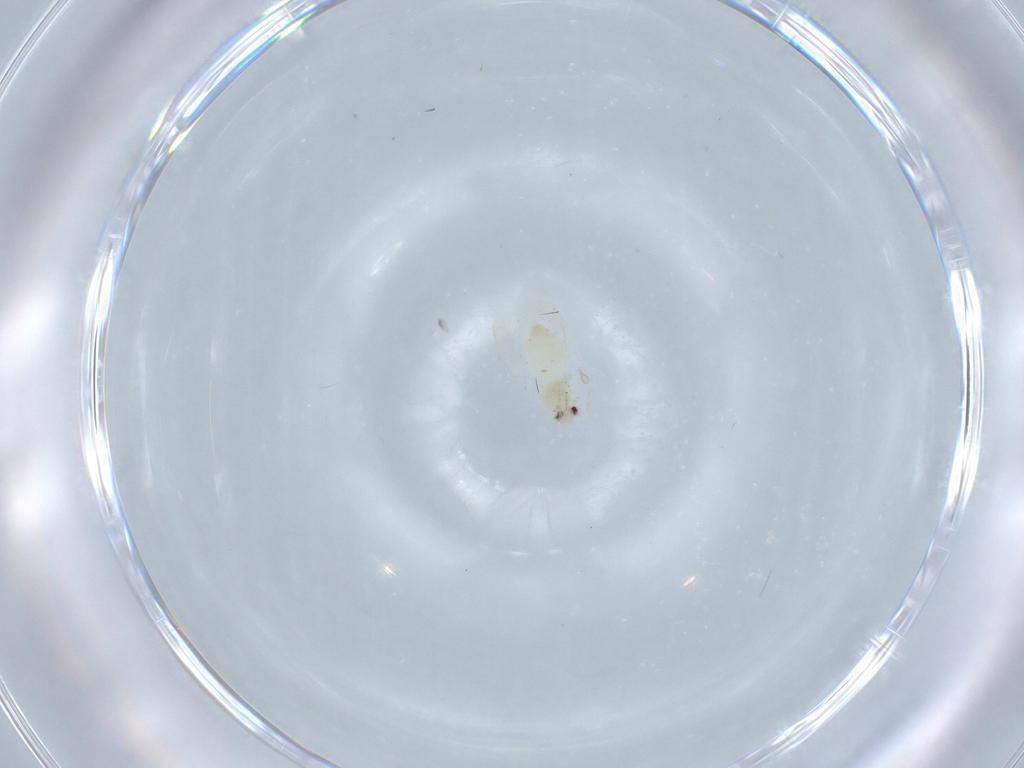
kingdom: Animalia
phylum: Arthropoda
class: Insecta
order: Hemiptera
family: Aleyrodidae
